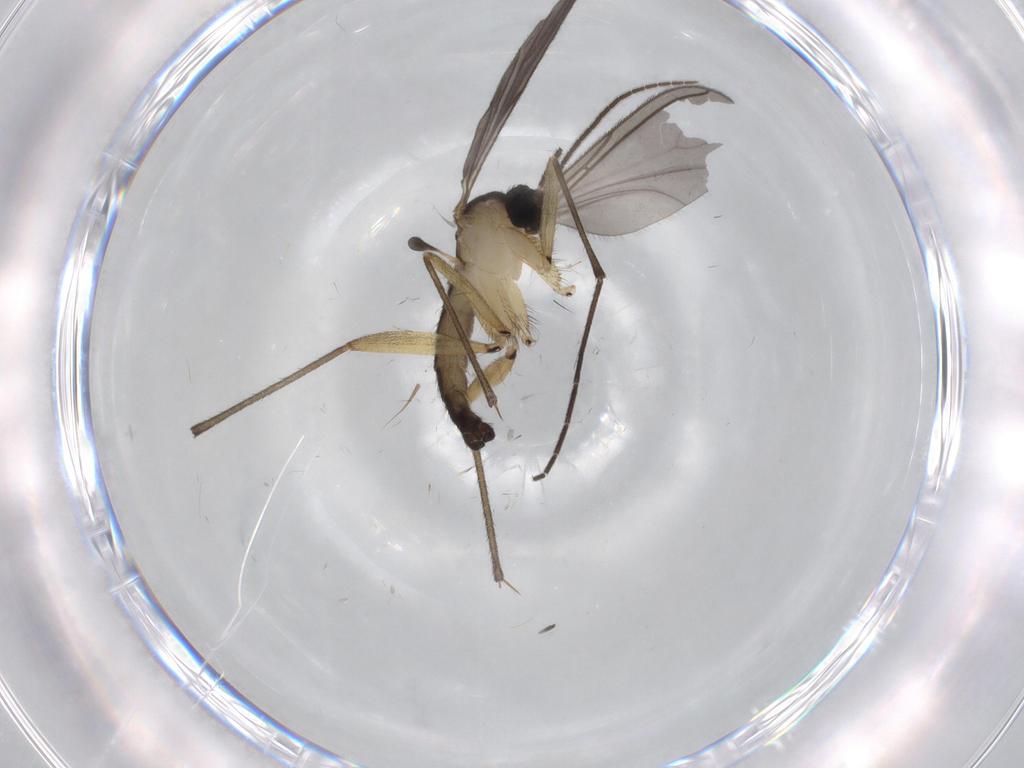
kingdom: Animalia
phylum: Arthropoda
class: Insecta
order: Diptera
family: Sciaridae
